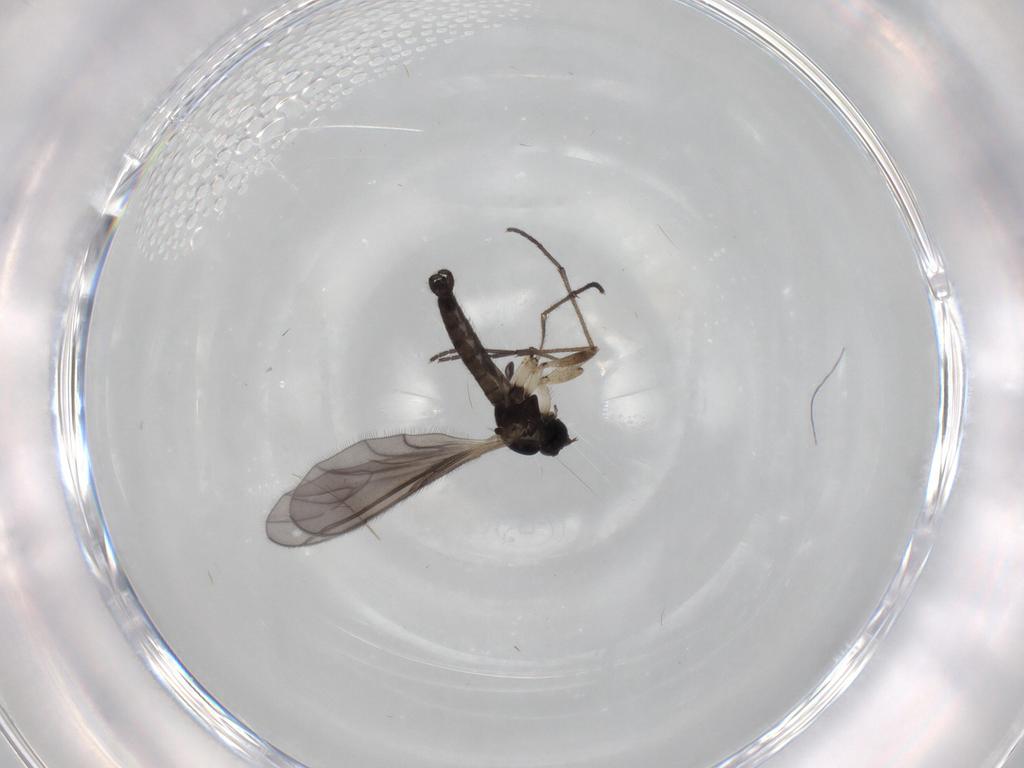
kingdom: Animalia
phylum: Arthropoda
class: Insecta
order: Diptera
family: Sciaridae
